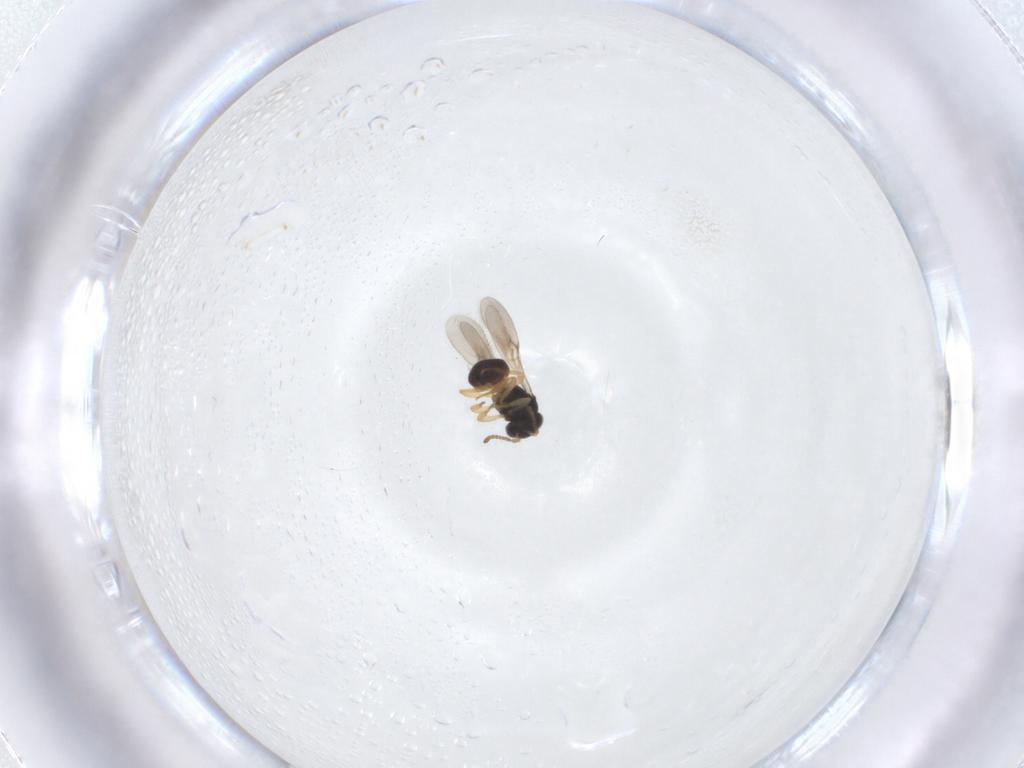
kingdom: Animalia
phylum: Arthropoda
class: Insecta
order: Hymenoptera
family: Scelionidae
